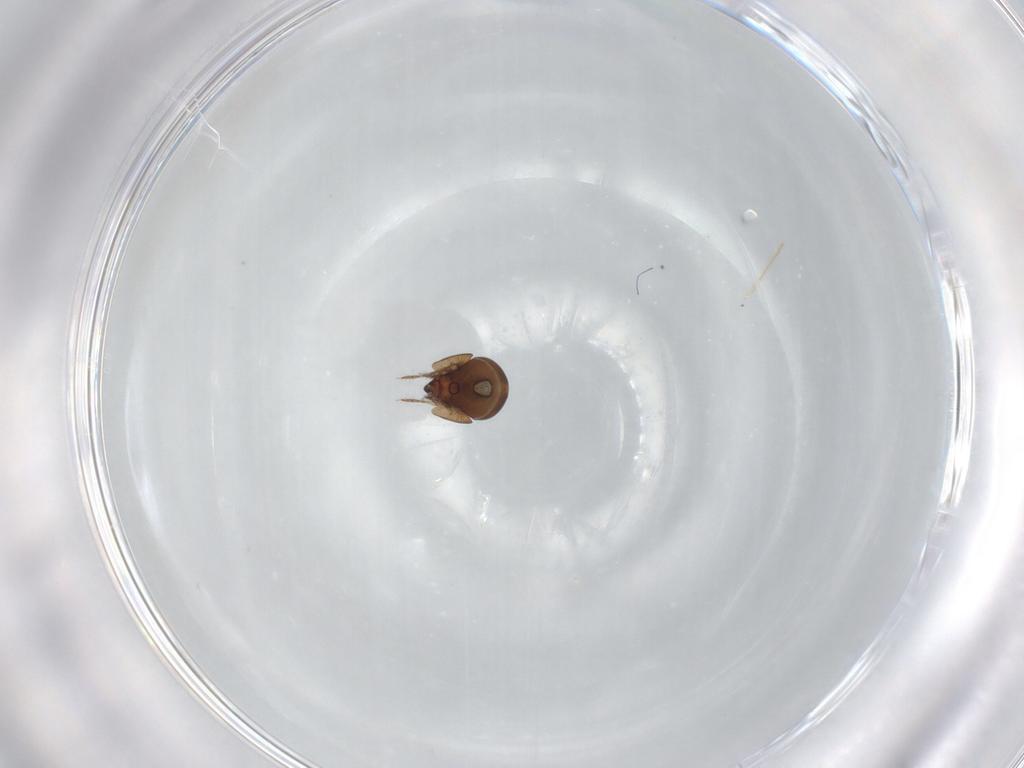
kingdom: Animalia
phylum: Arthropoda
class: Arachnida
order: Sarcoptiformes
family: Ceratozetidae
